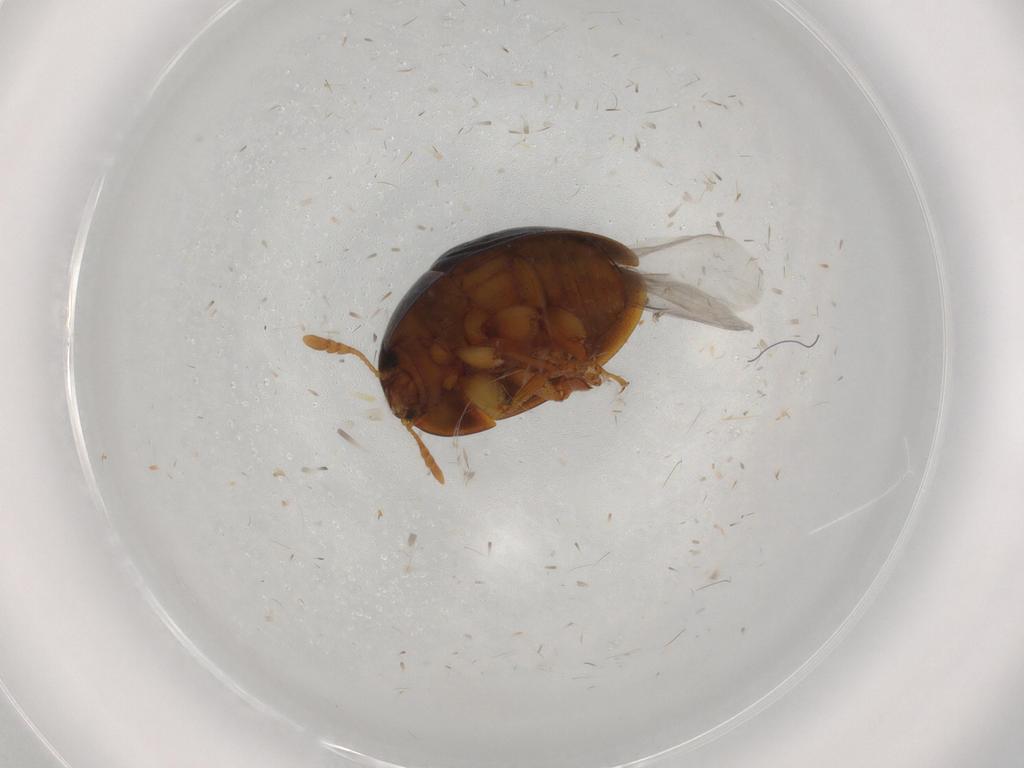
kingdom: Animalia
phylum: Arthropoda
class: Insecta
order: Coleoptera
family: Phalacridae
